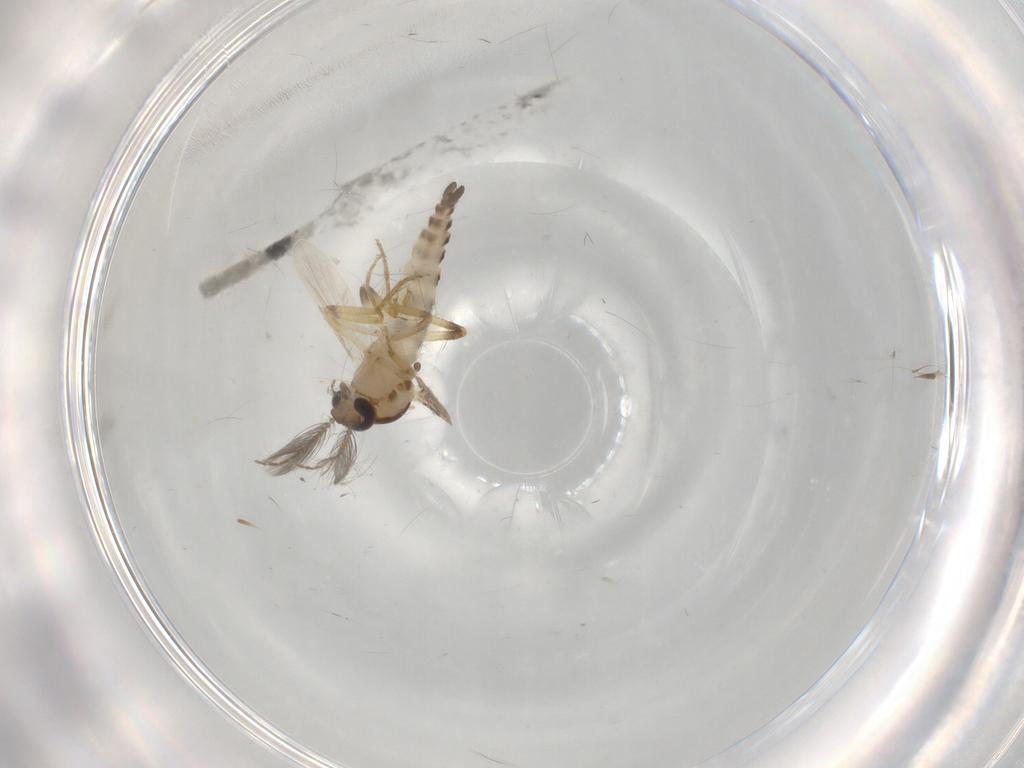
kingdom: Animalia
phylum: Arthropoda
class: Insecta
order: Diptera
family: Cecidomyiidae
